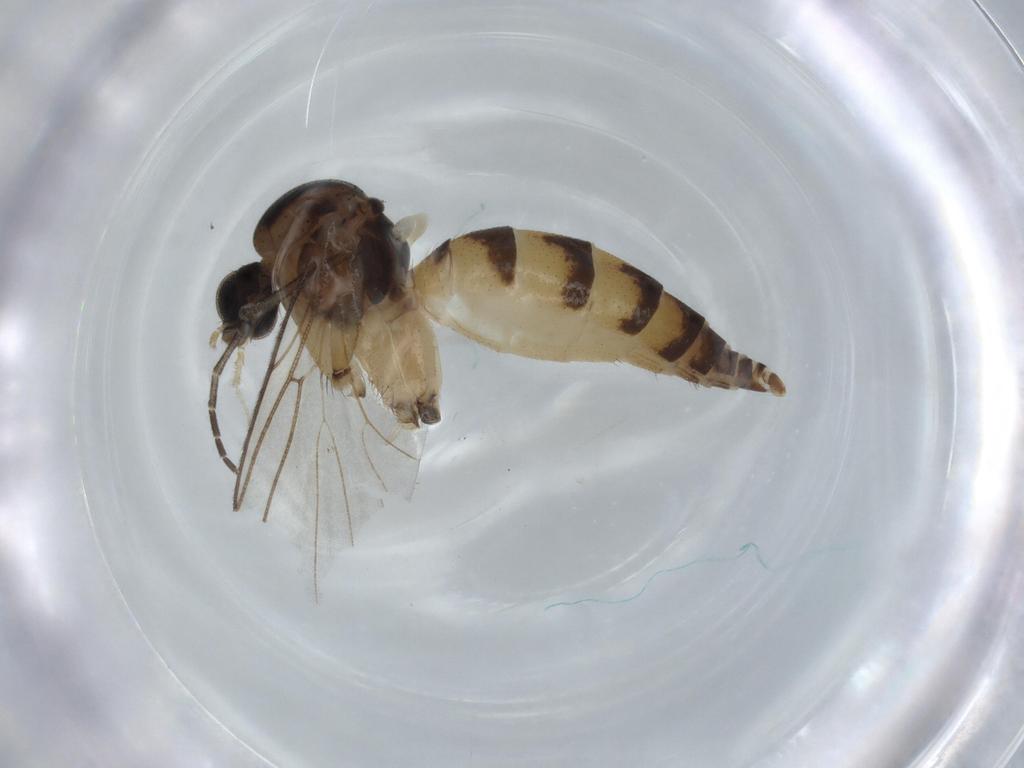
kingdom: Animalia
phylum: Arthropoda
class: Insecta
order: Diptera
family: Mycetophilidae
